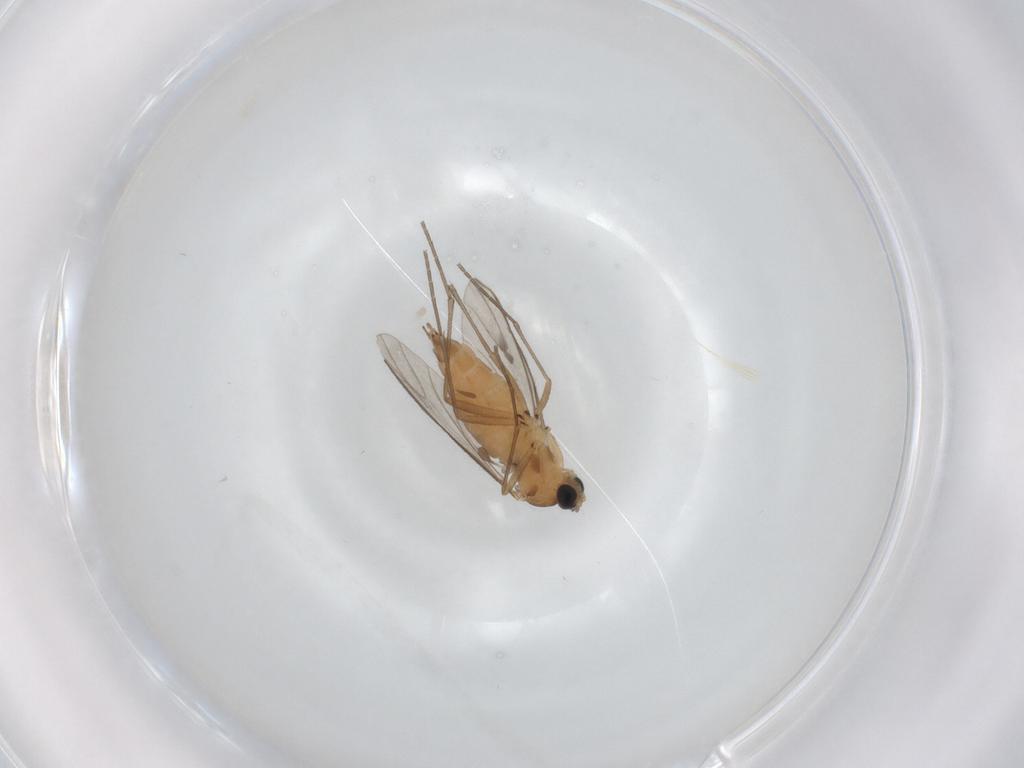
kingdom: Animalia
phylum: Arthropoda
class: Insecta
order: Diptera
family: Sciaridae
